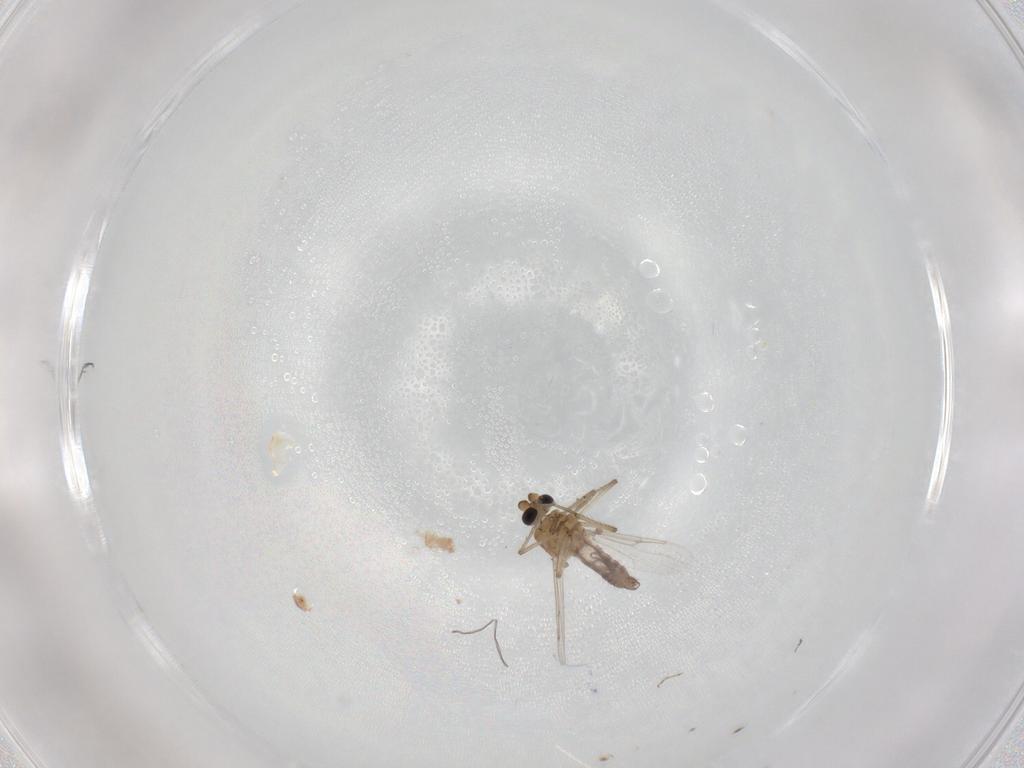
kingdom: Animalia
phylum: Arthropoda
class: Insecta
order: Diptera
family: Ceratopogonidae
